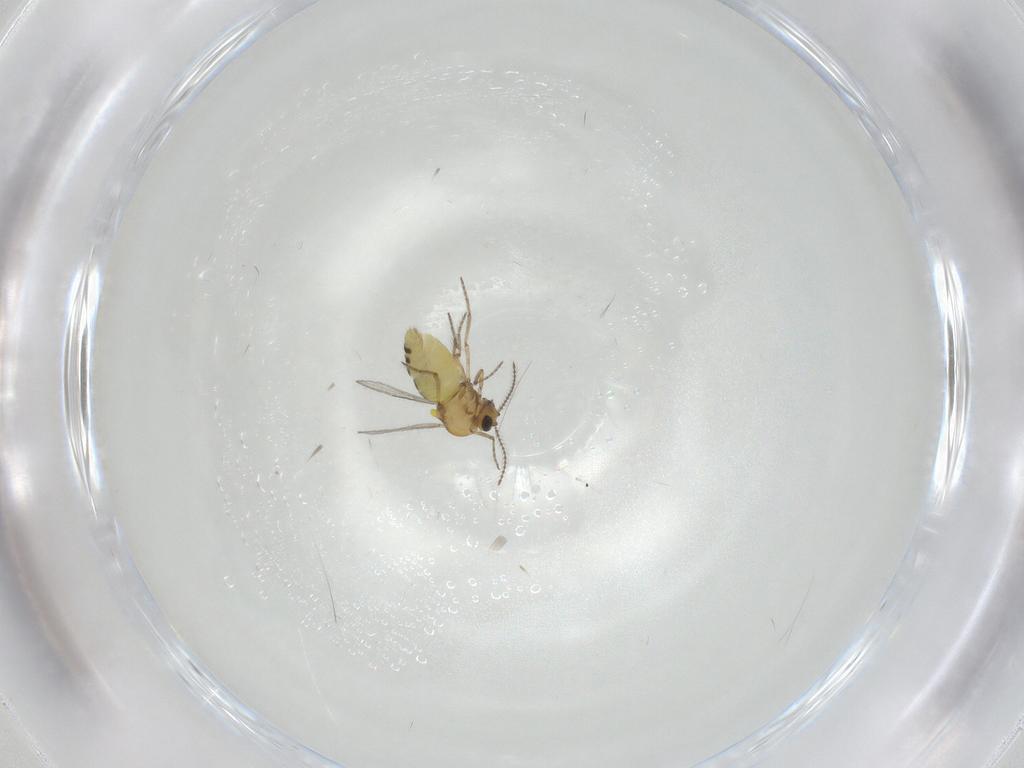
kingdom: Animalia
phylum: Arthropoda
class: Insecta
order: Diptera
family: Ceratopogonidae
